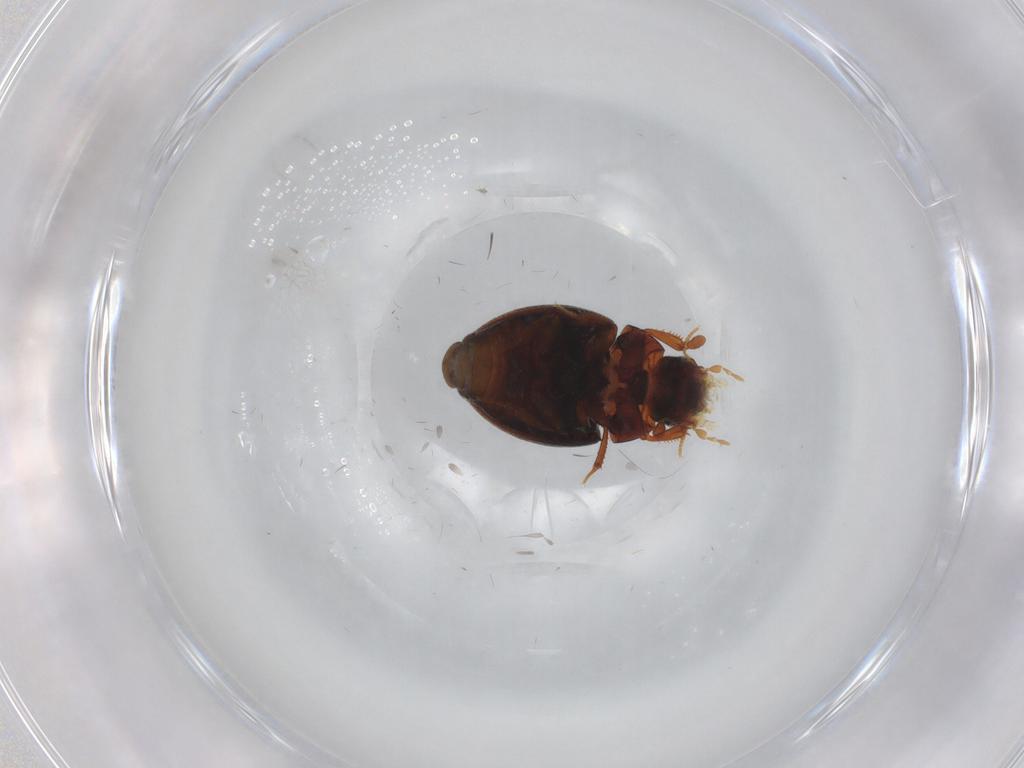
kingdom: Animalia
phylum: Arthropoda
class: Insecta
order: Coleoptera
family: Hydrophilidae
